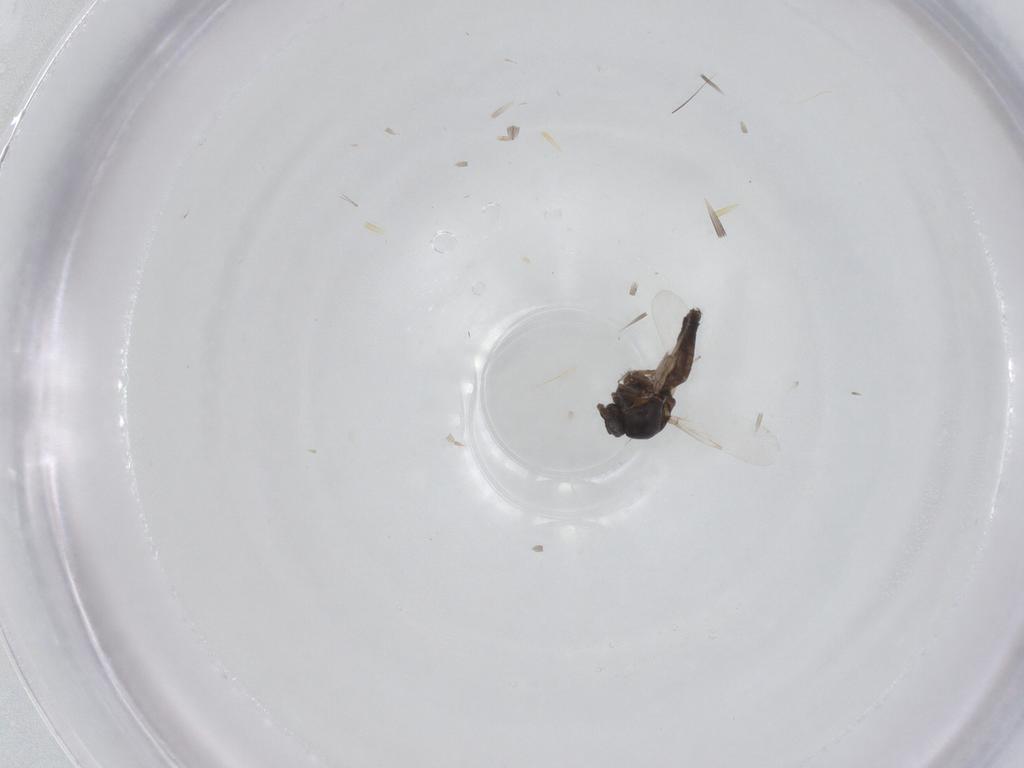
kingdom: Animalia
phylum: Arthropoda
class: Insecta
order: Diptera
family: Ceratopogonidae
